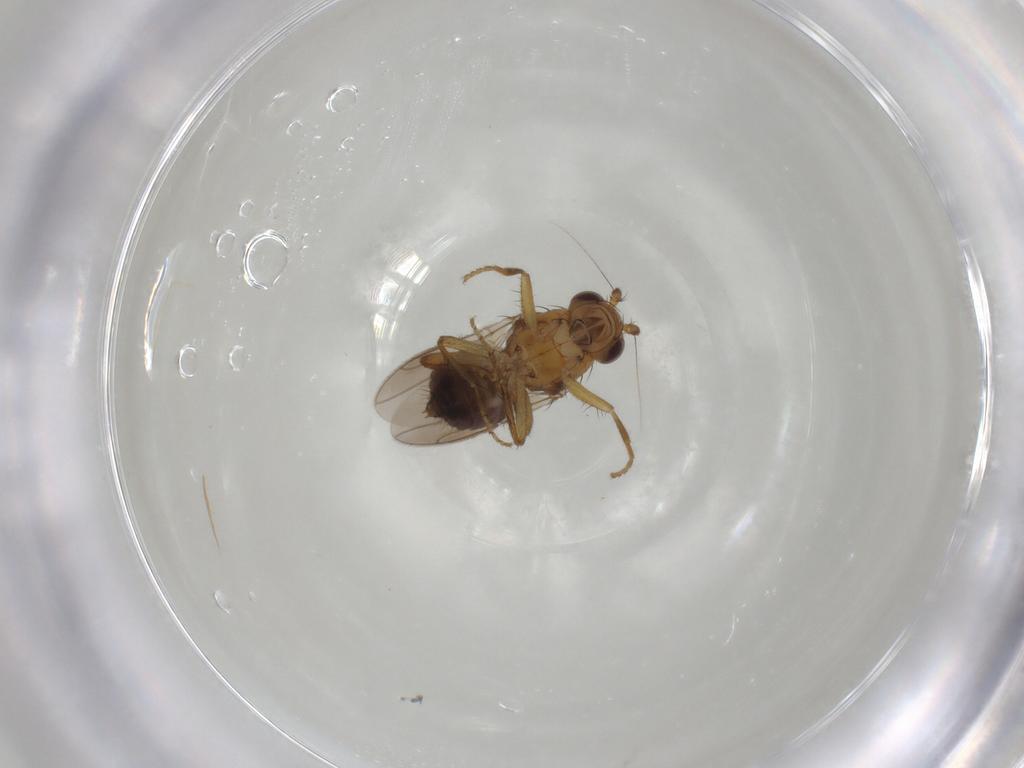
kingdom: Animalia
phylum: Arthropoda
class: Insecta
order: Diptera
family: Sphaeroceridae
